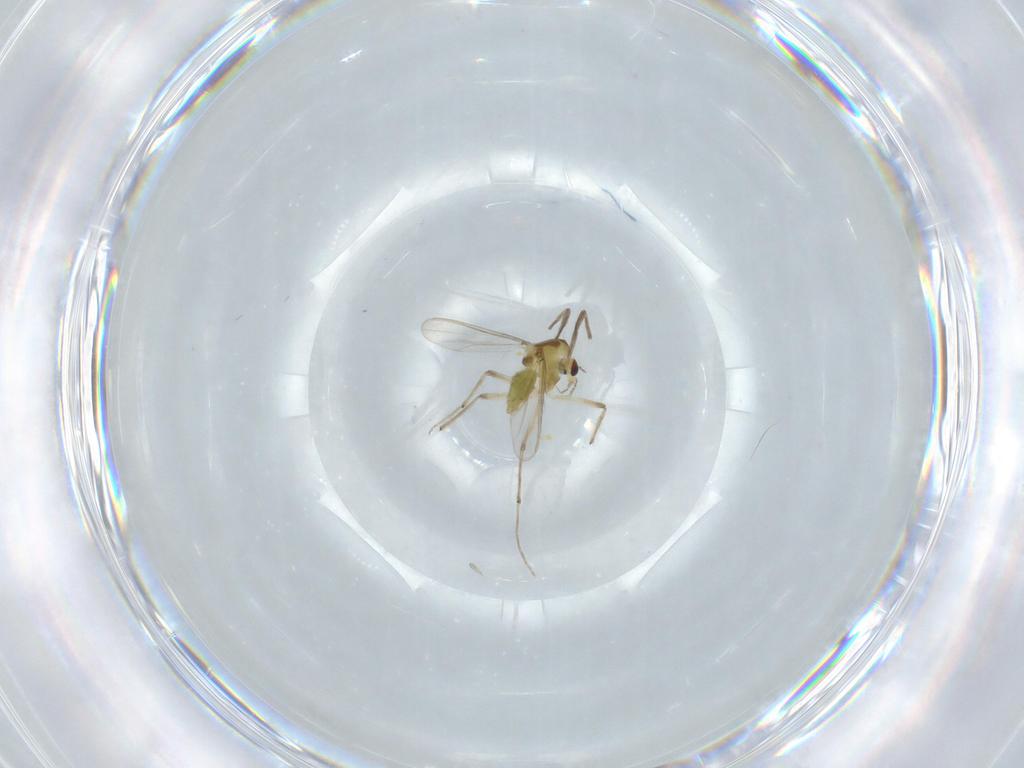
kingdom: Animalia
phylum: Arthropoda
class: Insecta
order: Diptera
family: Chironomidae
